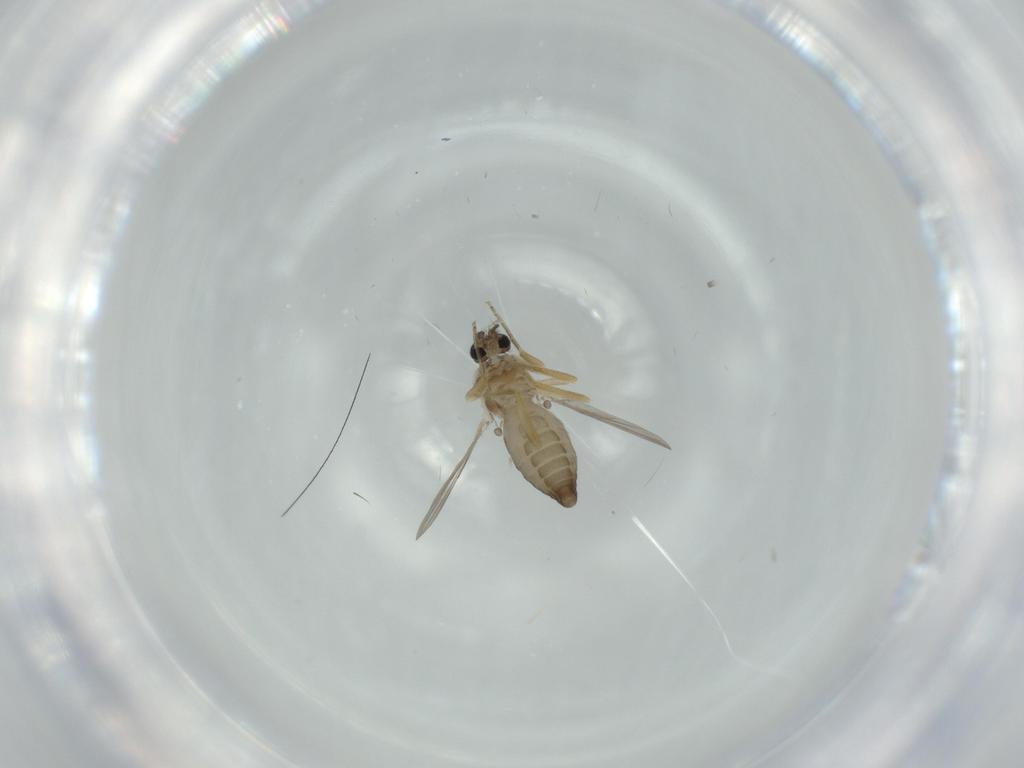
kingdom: Animalia
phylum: Arthropoda
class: Insecta
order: Diptera
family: Ceratopogonidae
